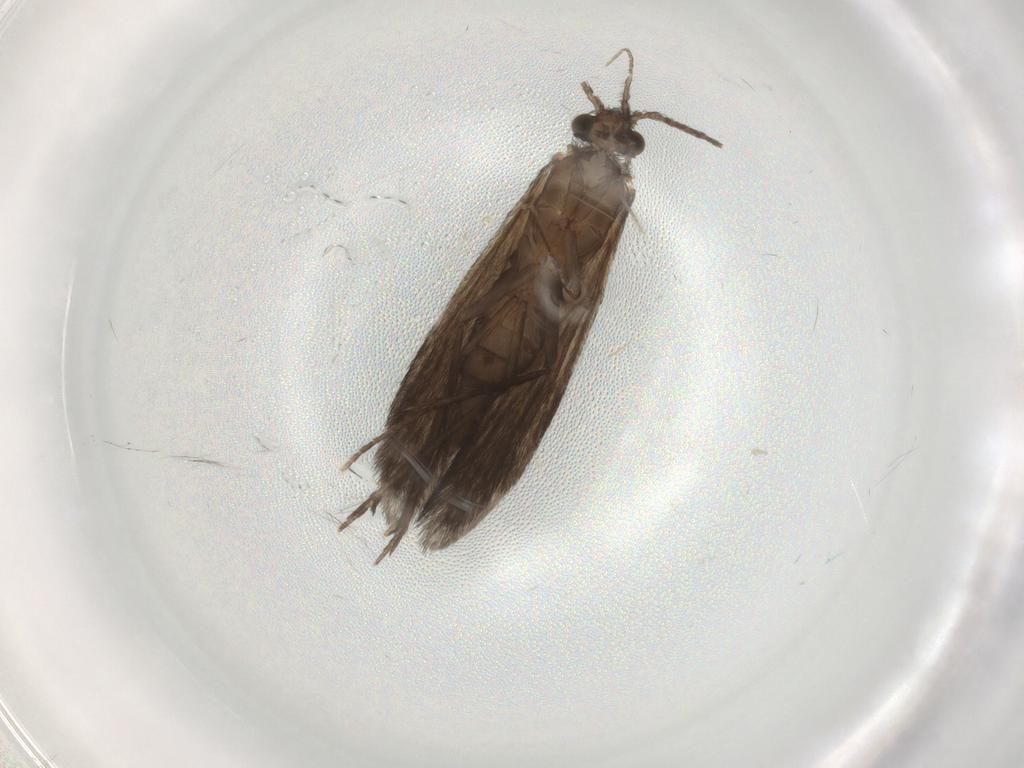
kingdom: Animalia
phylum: Arthropoda
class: Insecta
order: Trichoptera
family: Xiphocentronidae
